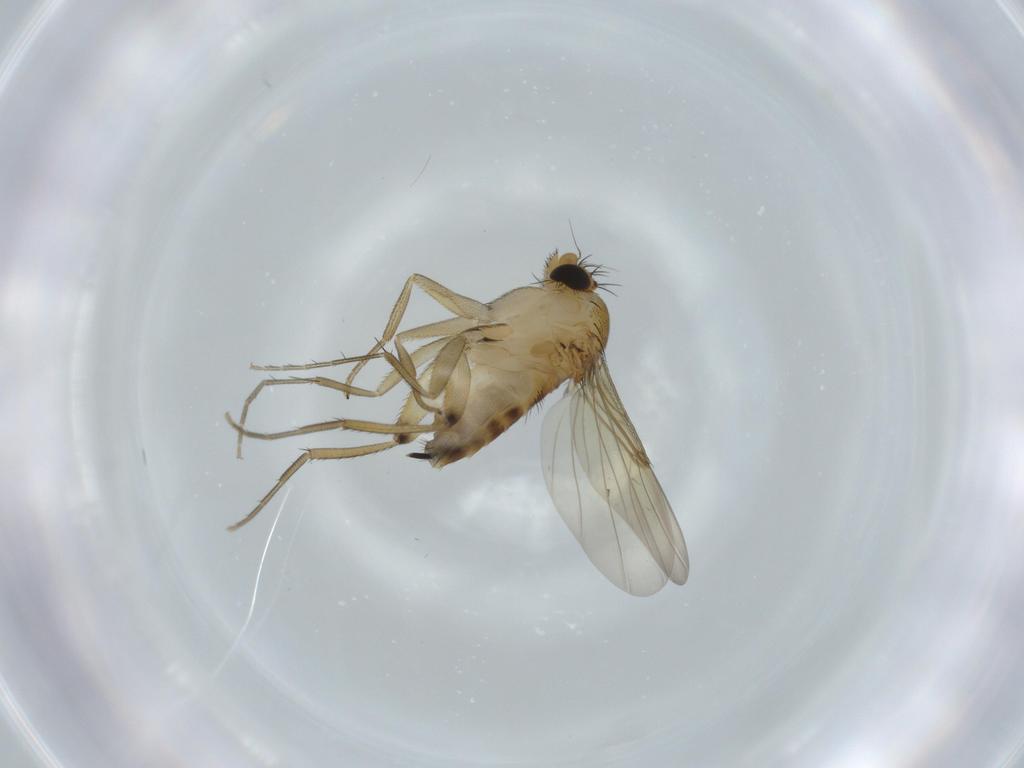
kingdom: Animalia
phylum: Arthropoda
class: Insecta
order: Diptera
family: Phoridae
